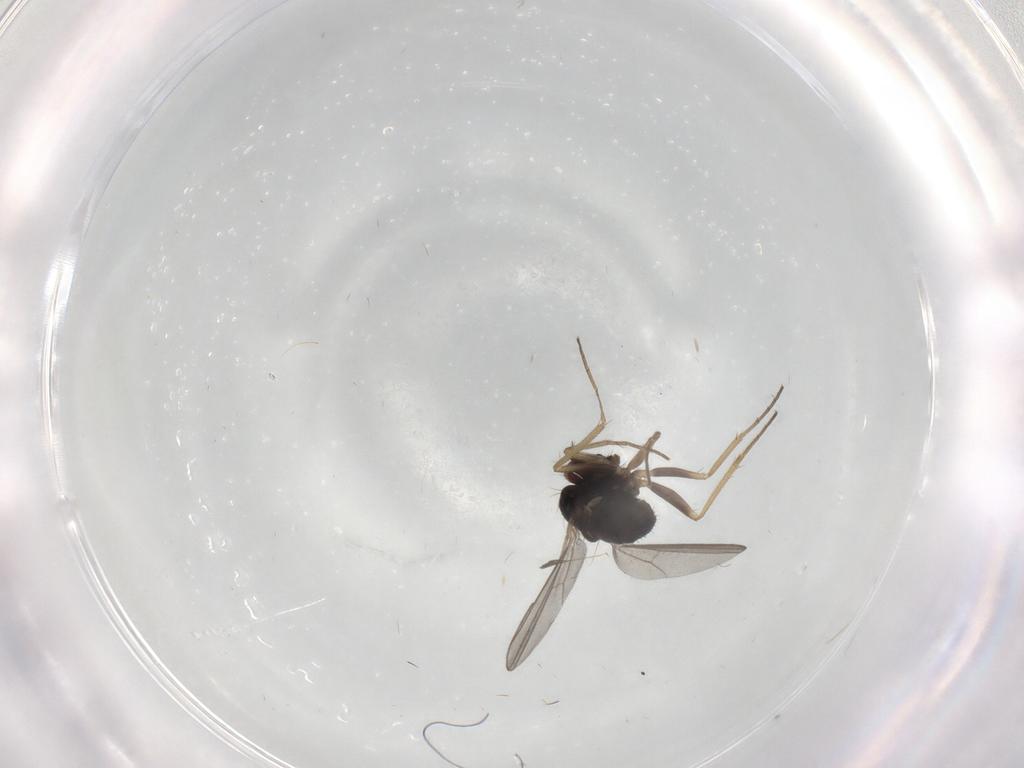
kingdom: Animalia
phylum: Arthropoda
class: Insecta
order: Diptera
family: Dolichopodidae
